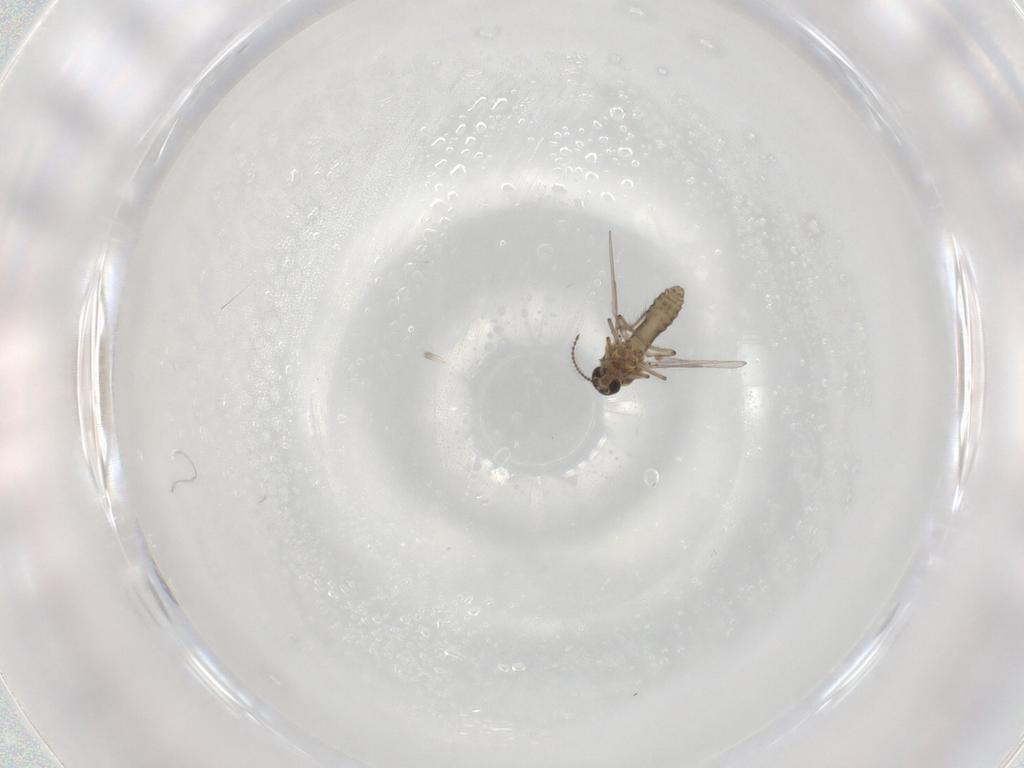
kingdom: Animalia
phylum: Arthropoda
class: Insecta
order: Diptera
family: Ceratopogonidae
